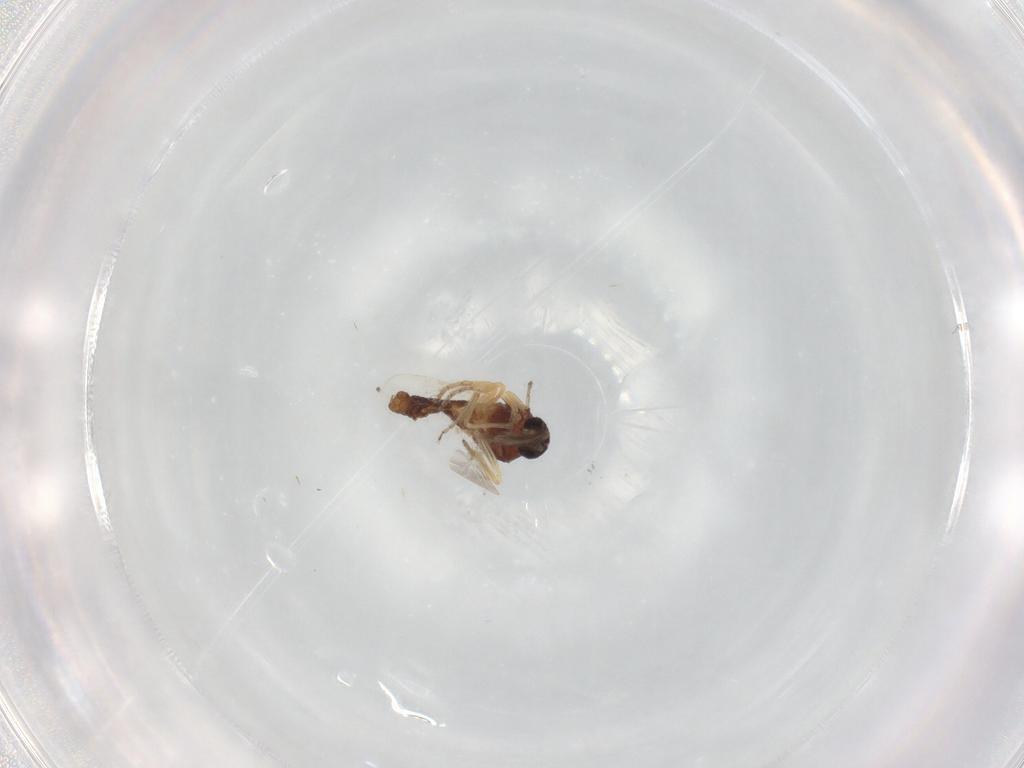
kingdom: Animalia
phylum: Arthropoda
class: Insecta
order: Diptera
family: Ceratopogonidae
